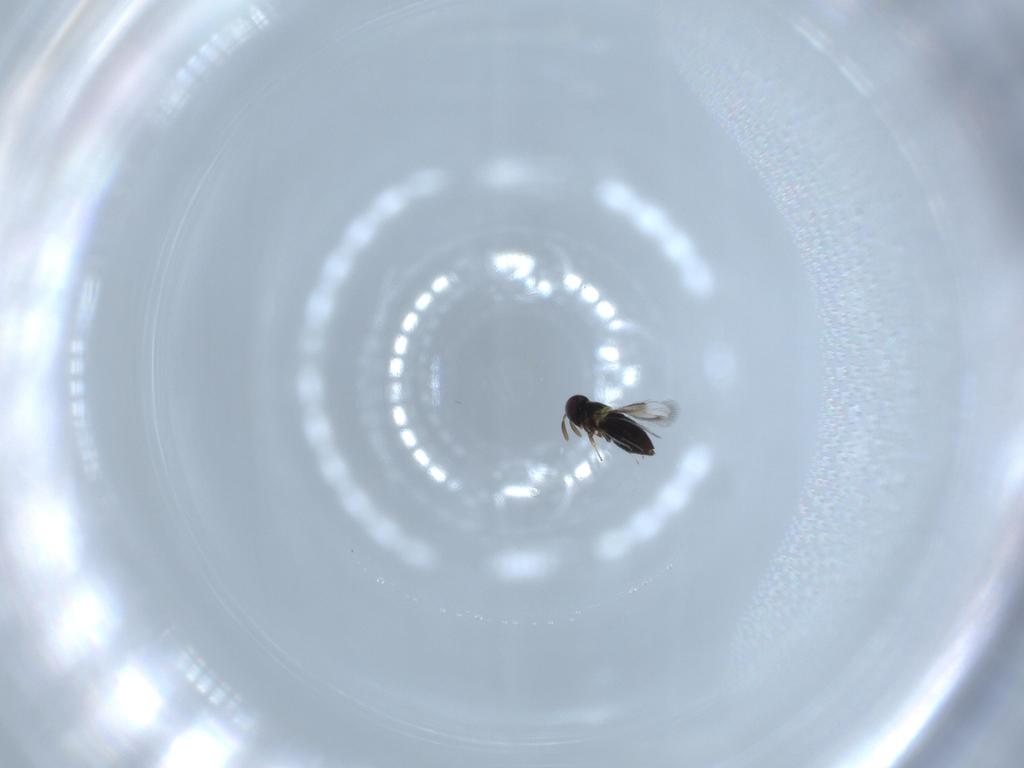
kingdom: Animalia
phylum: Arthropoda
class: Insecta
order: Hymenoptera
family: Signiphoridae
